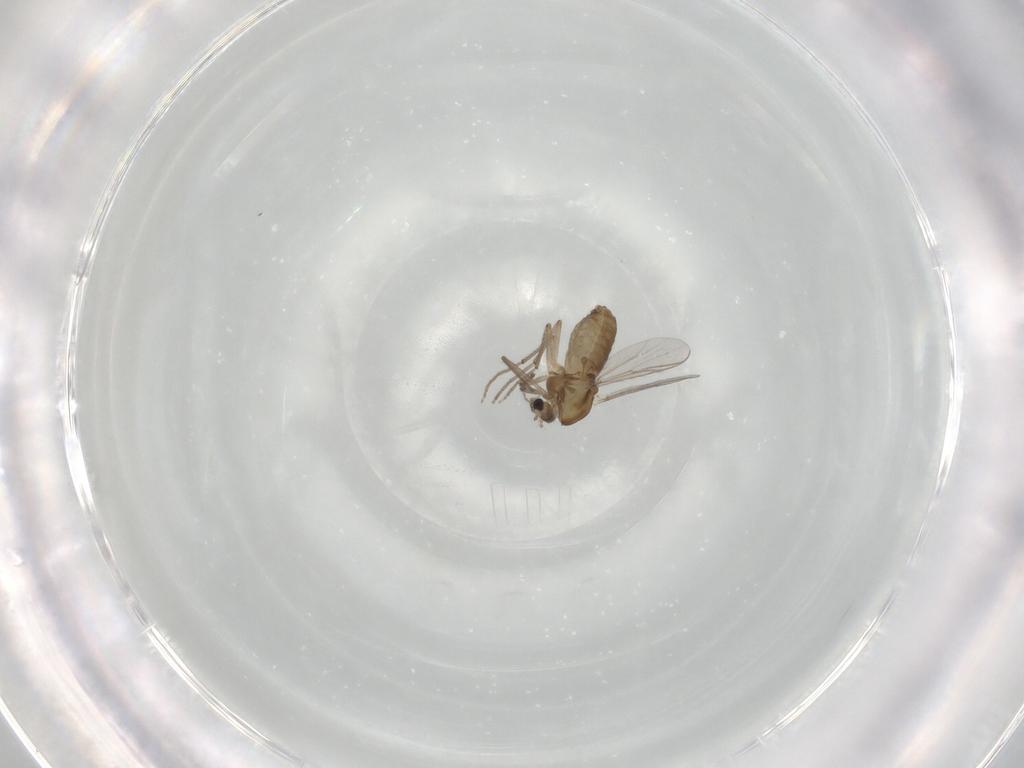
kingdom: Animalia
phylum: Arthropoda
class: Insecta
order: Diptera
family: Chironomidae
